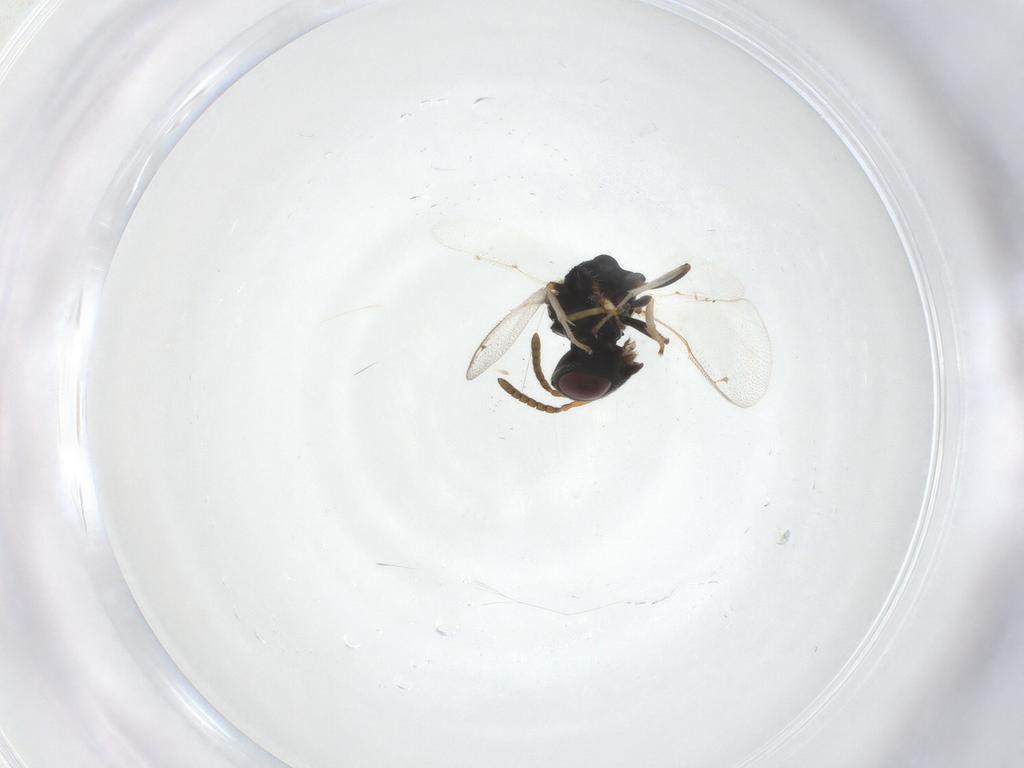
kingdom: Animalia
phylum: Arthropoda
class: Insecta
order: Hymenoptera
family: Pteromalidae
